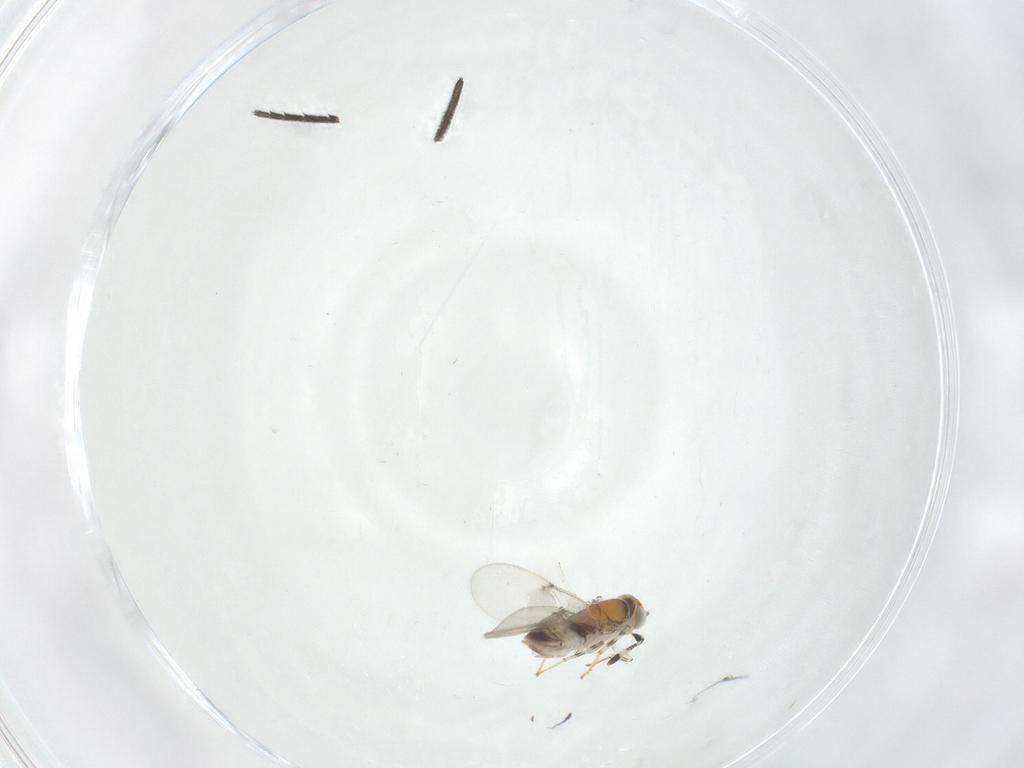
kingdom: Animalia
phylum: Arthropoda
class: Insecta
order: Hymenoptera
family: Encyrtidae
